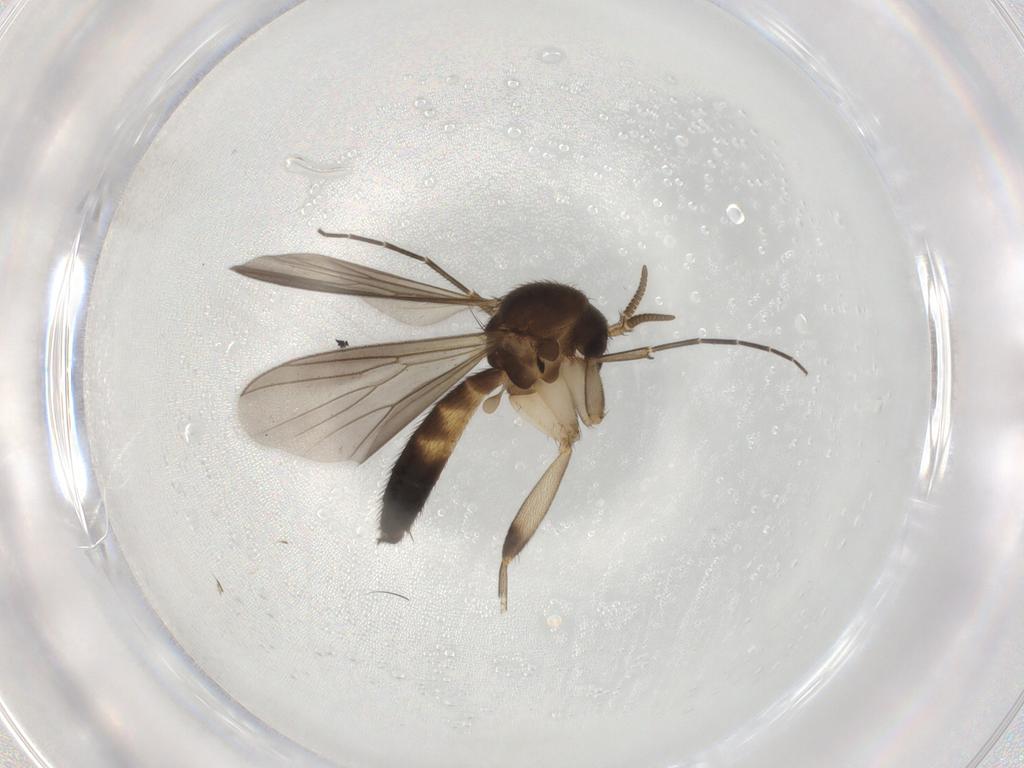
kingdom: Animalia
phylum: Arthropoda
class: Insecta
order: Diptera
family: Mycetophilidae
